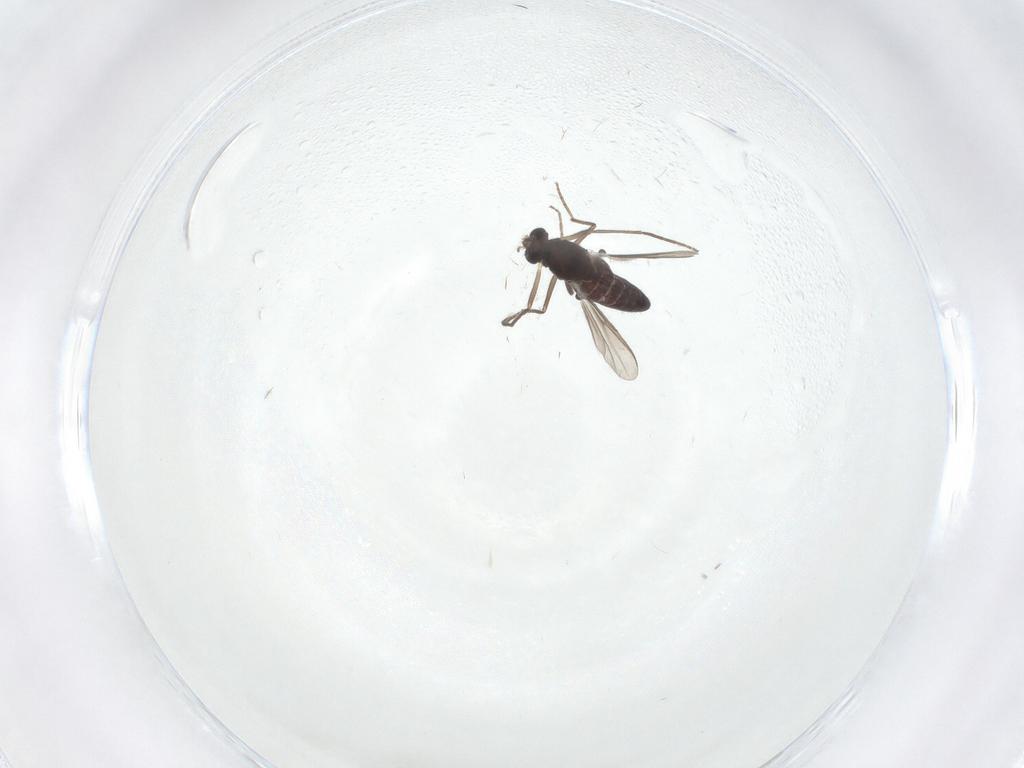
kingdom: Animalia
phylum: Arthropoda
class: Insecta
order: Diptera
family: Chironomidae
